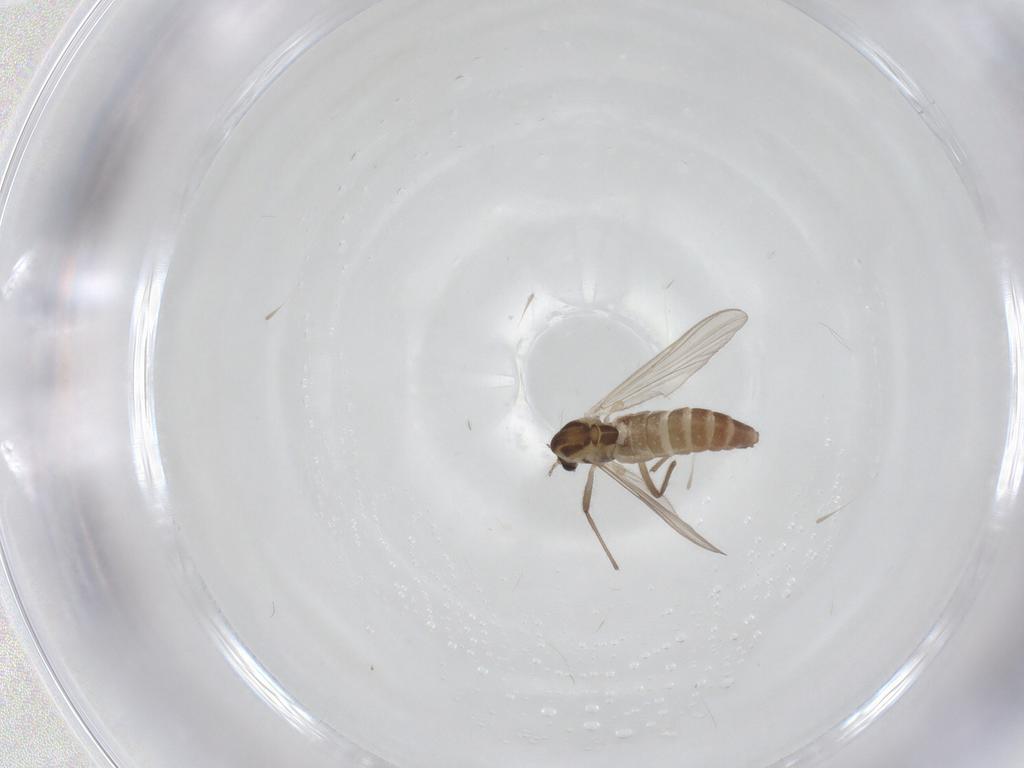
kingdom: Animalia
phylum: Arthropoda
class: Insecta
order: Diptera
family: Chironomidae
